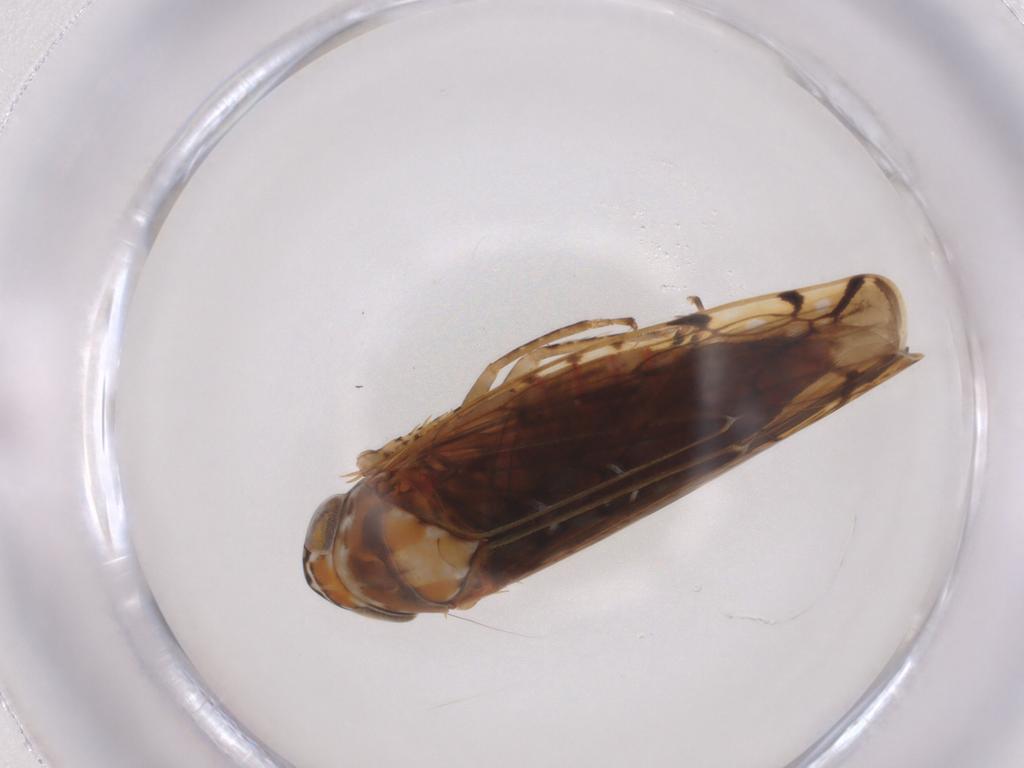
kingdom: Animalia
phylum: Arthropoda
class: Insecta
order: Hemiptera
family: Cicadellidae
